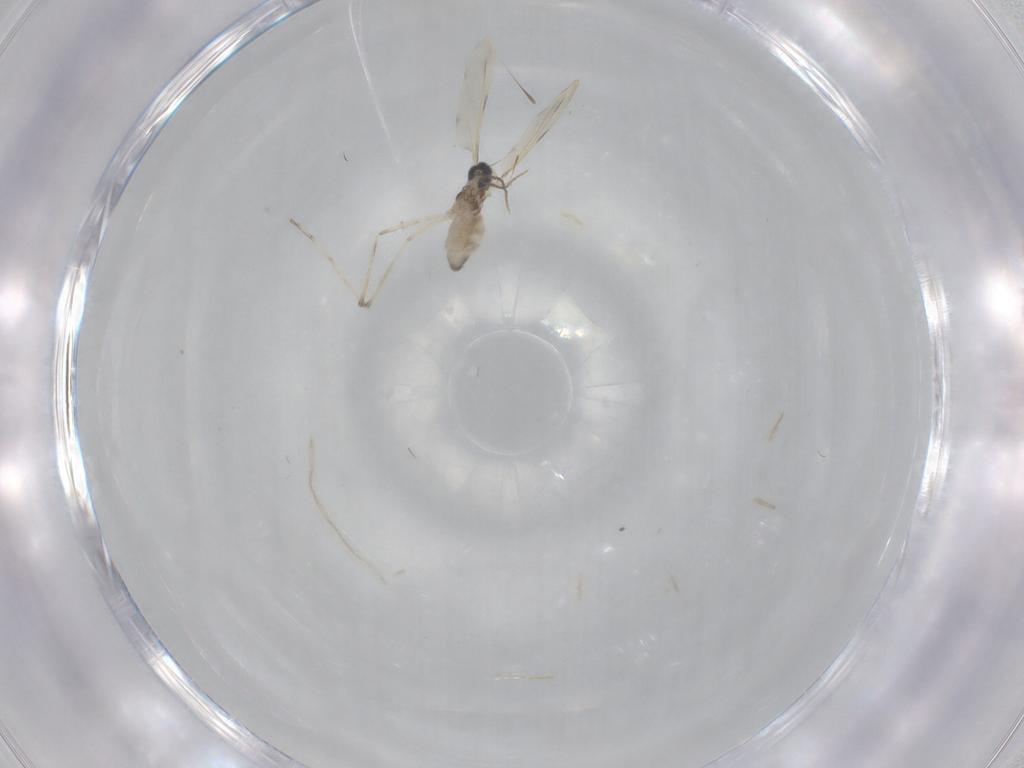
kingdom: Animalia
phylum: Arthropoda
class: Insecta
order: Diptera
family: Cecidomyiidae
